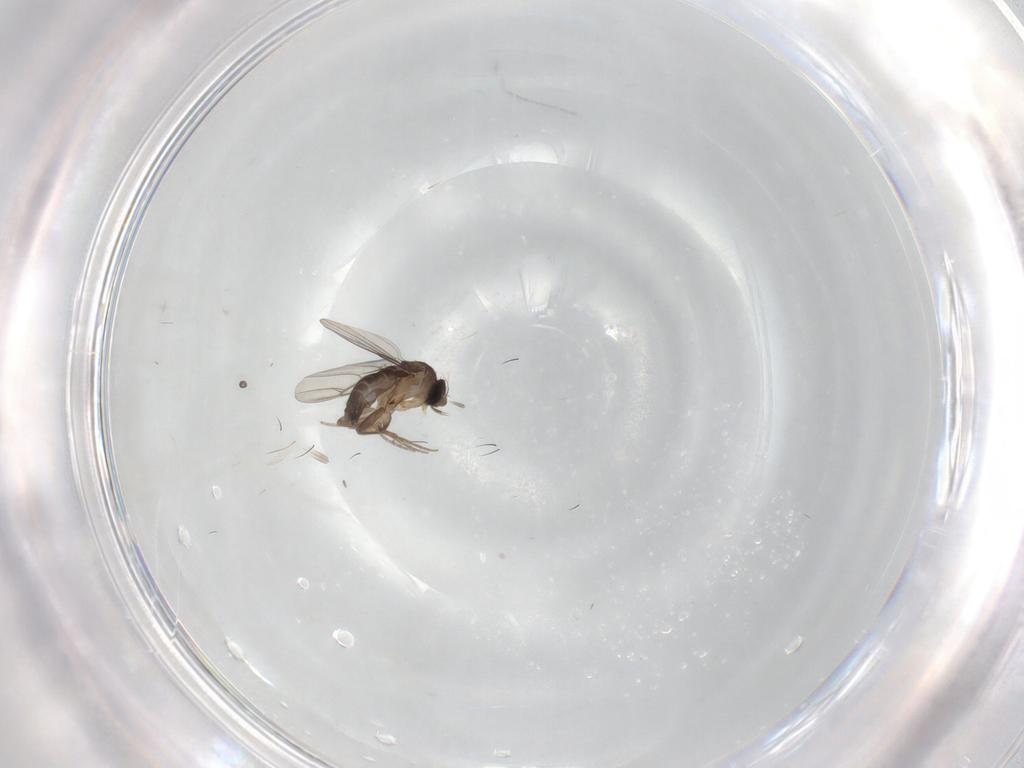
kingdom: Animalia
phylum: Arthropoda
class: Insecta
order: Diptera
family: Phoridae
